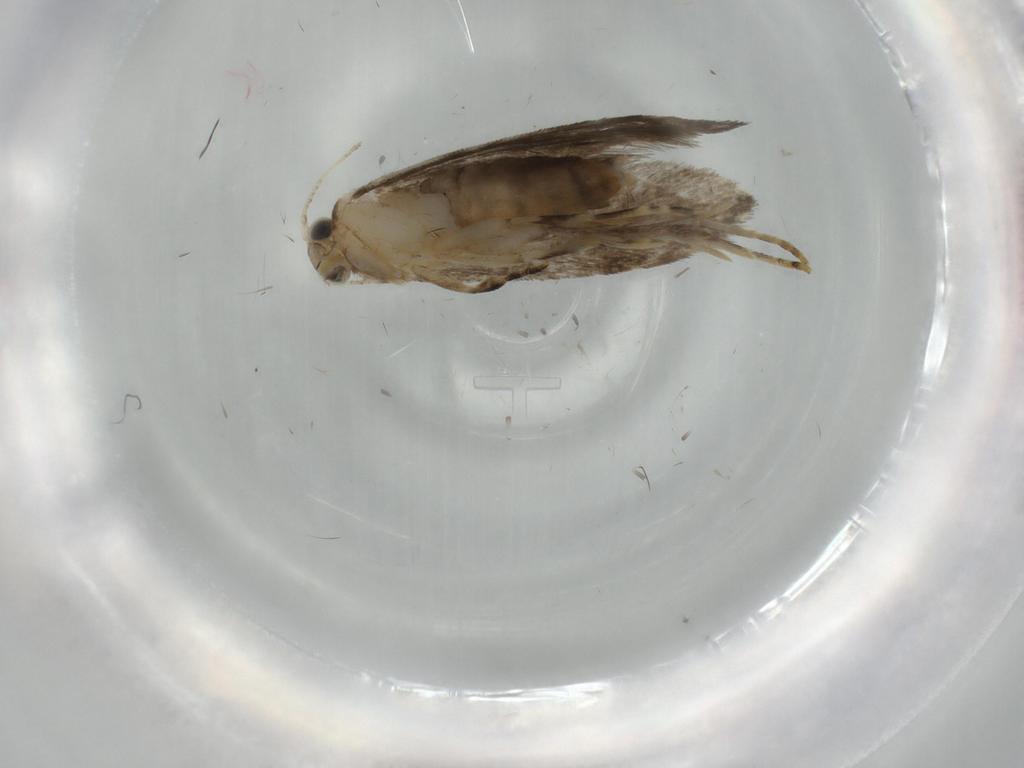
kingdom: Animalia
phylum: Arthropoda
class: Insecta
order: Lepidoptera
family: Tineidae
